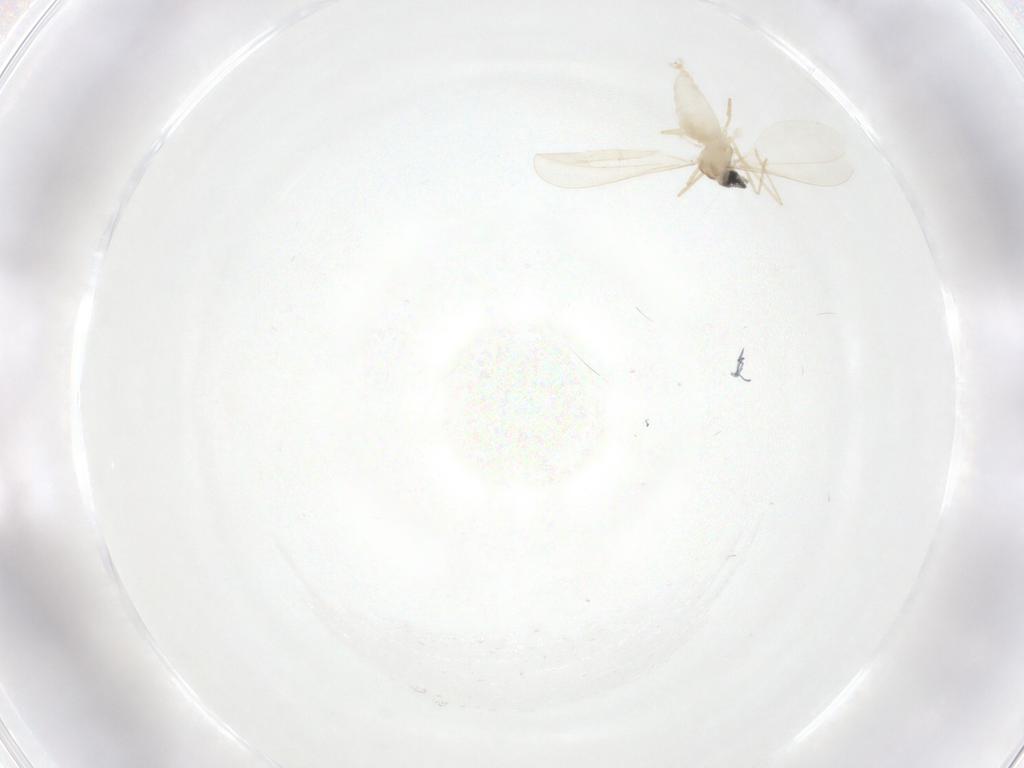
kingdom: Animalia
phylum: Arthropoda
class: Insecta
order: Diptera
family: Cecidomyiidae
